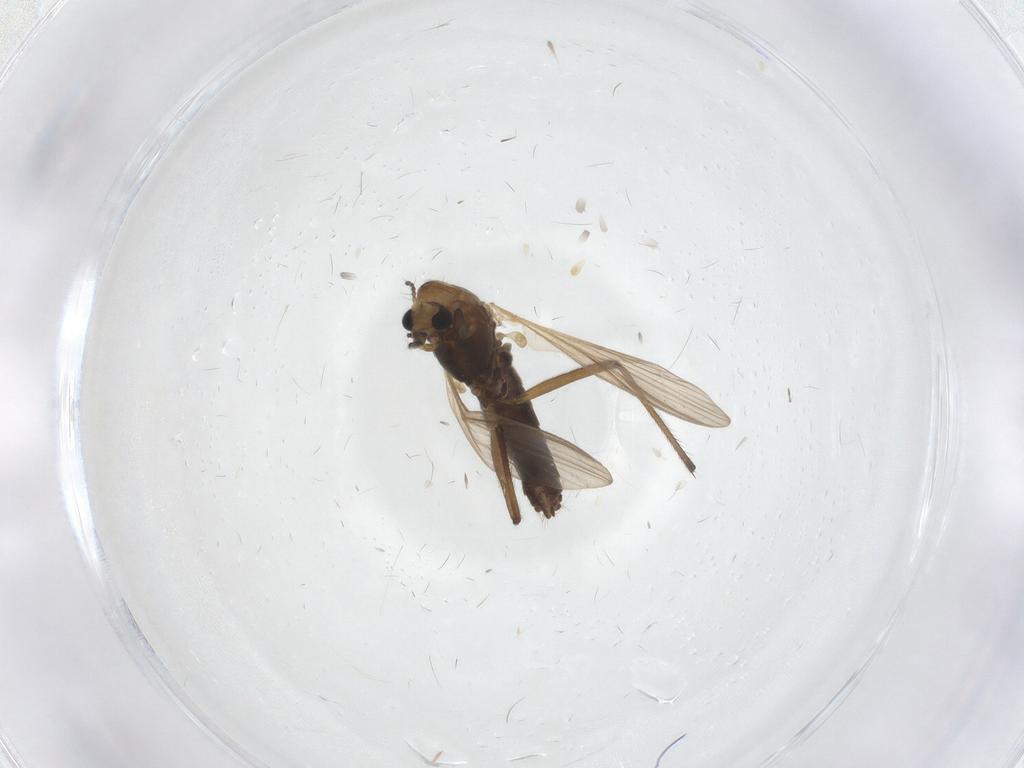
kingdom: Animalia
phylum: Arthropoda
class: Insecta
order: Diptera
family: Chironomidae
